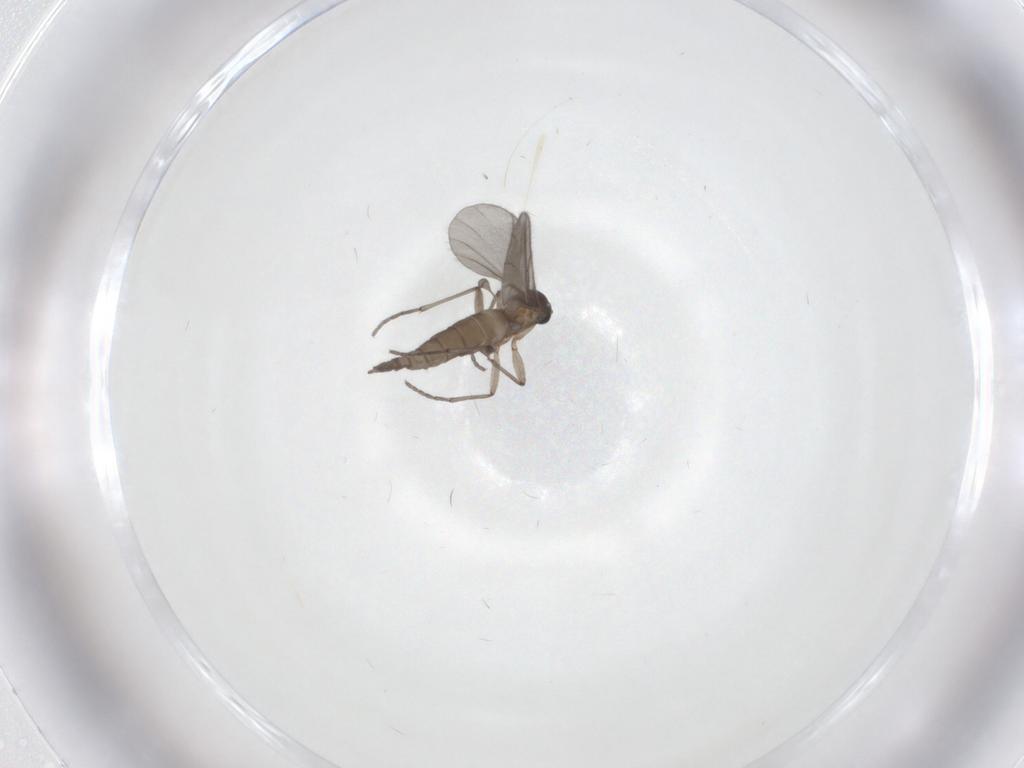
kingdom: Animalia
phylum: Arthropoda
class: Insecta
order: Diptera
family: Sciaridae
